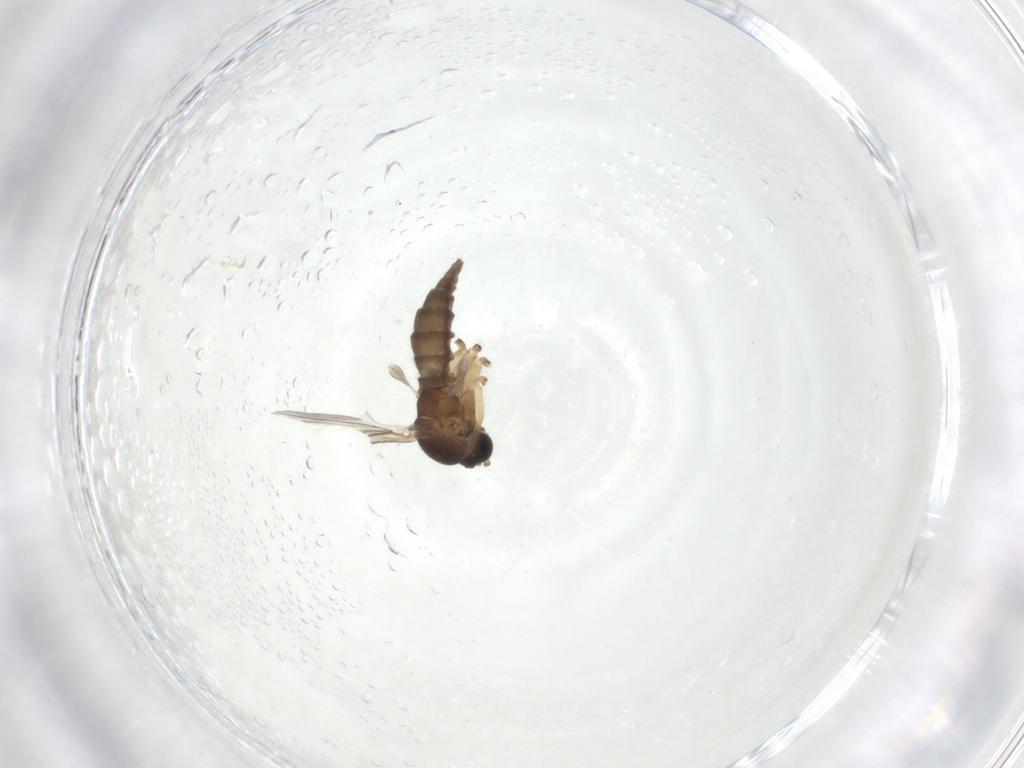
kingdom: Animalia
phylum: Arthropoda
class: Insecta
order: Diptera
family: Sciaridae
